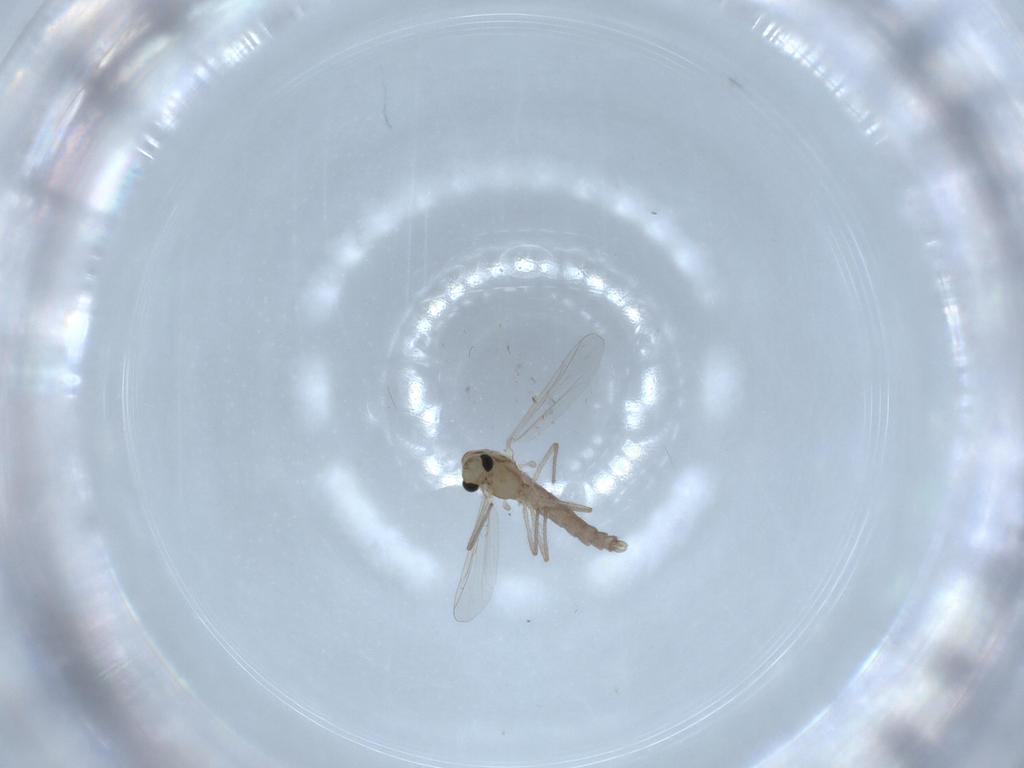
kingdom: Animalia
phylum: Arthropoda
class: Insecta
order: Diptera
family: Chironomidae
